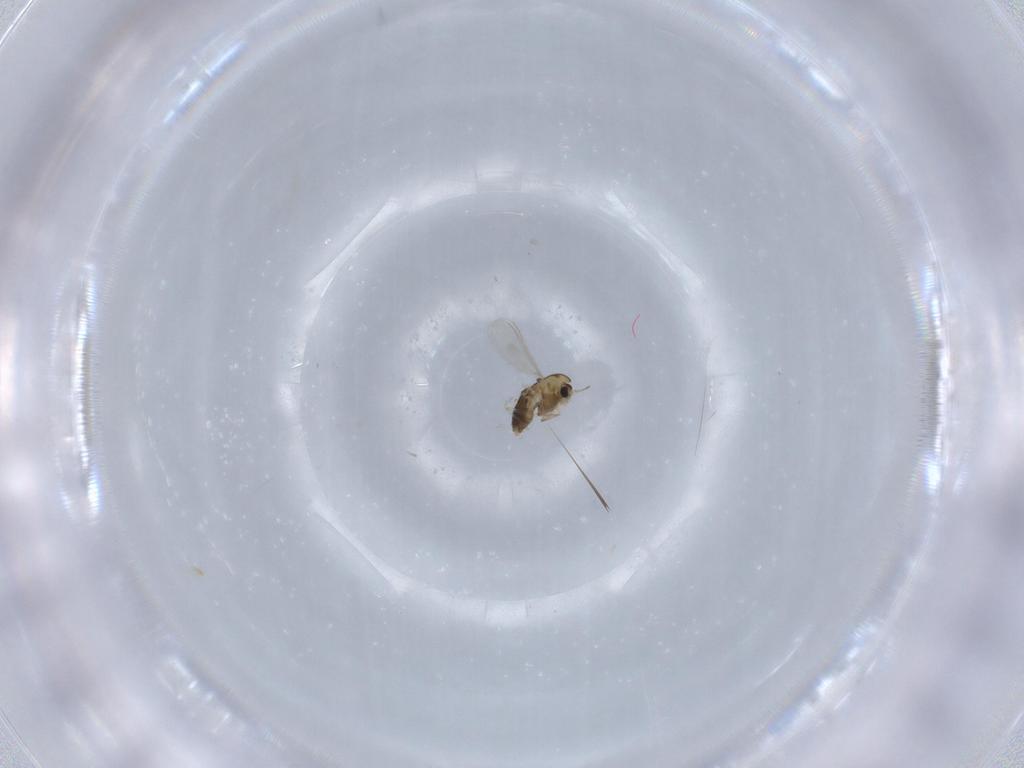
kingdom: Animalia
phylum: Arthropoda
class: Insecta
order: Diptera
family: Chironomidae
